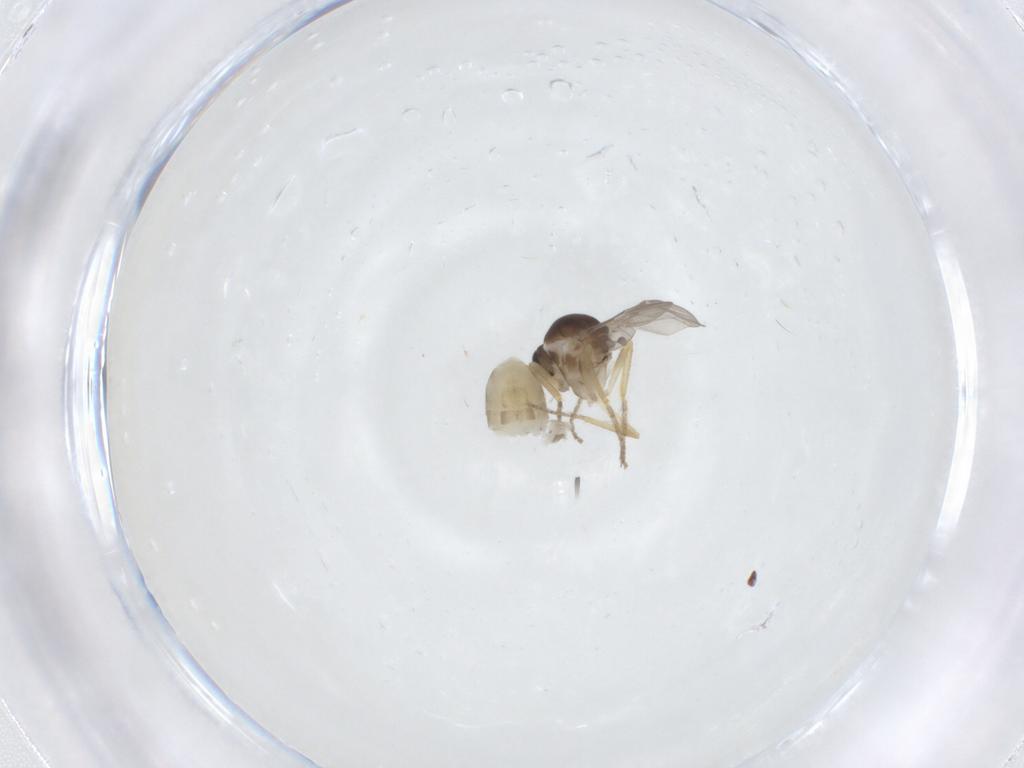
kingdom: Animalia
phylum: Arthropoda
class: Insecta
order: Diptera
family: Ceratopogonidae
